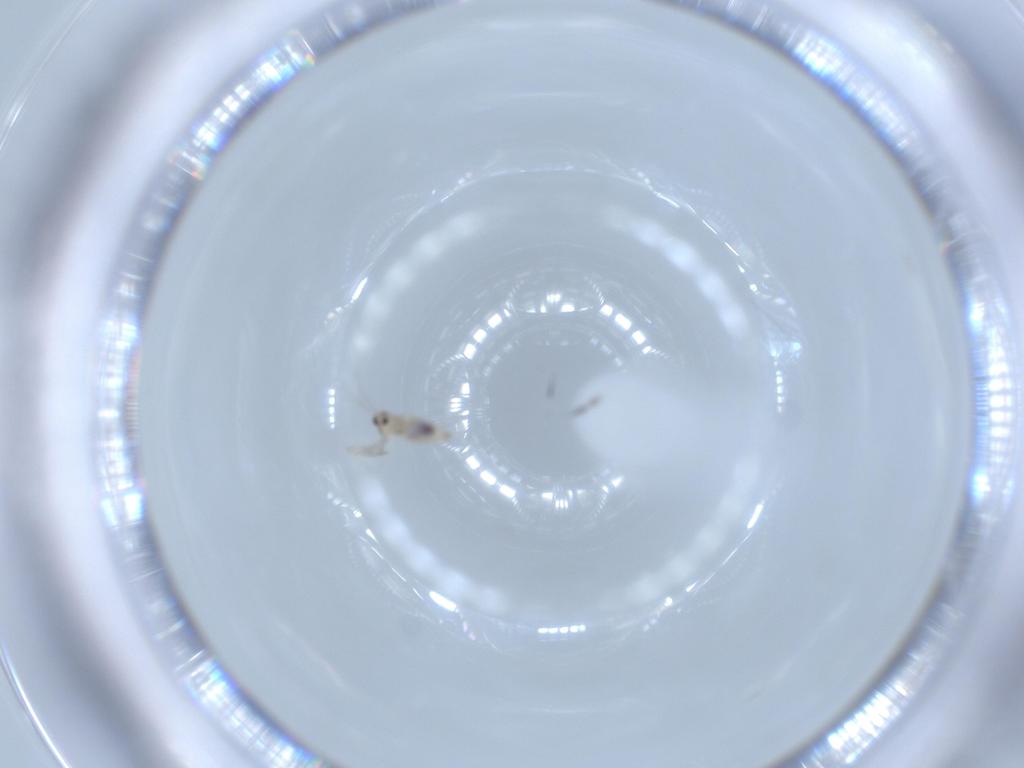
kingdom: Animalia
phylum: Arthropoda
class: Insecta
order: Diptera
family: Cecidomyiidae
